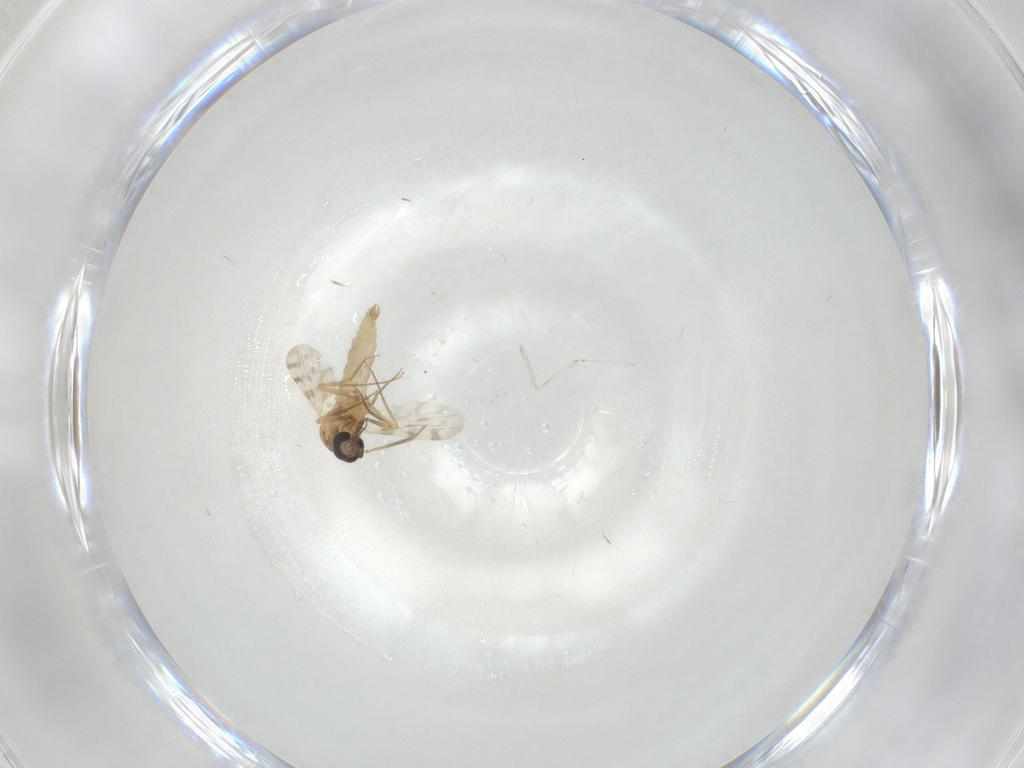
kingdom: Animalia
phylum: Arthropoda
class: Insecta
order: Diptera
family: Ceratopogonidae
